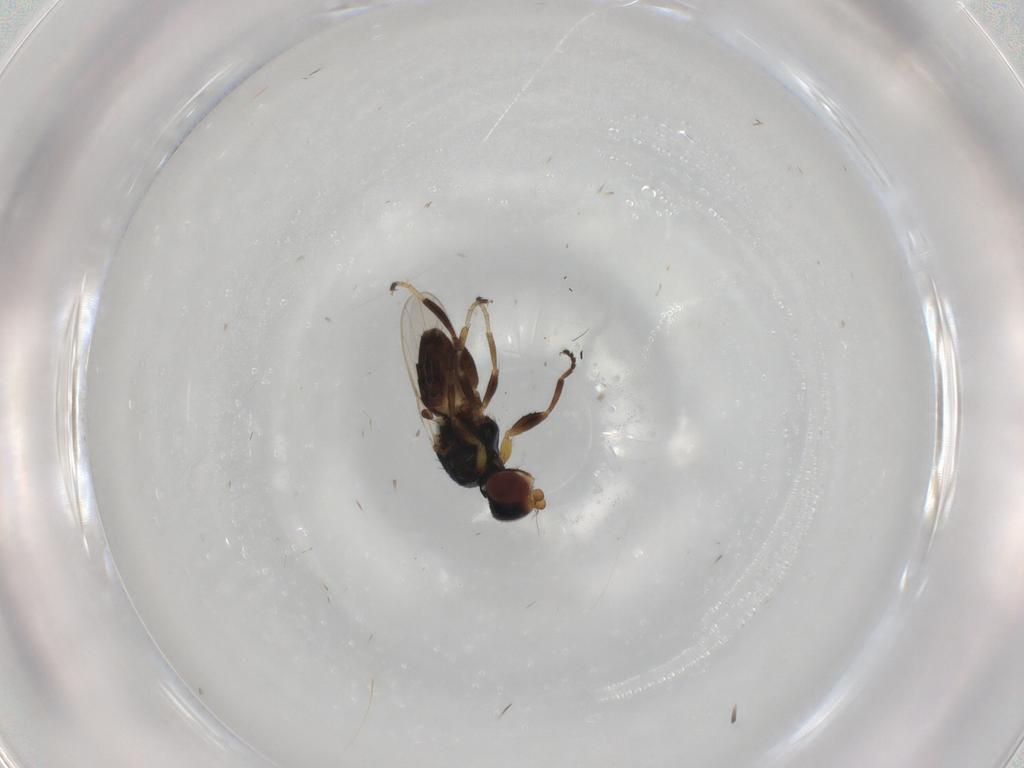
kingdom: Animalia
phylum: Arthropoda
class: Insecta
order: Diptera
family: Chloropidae
